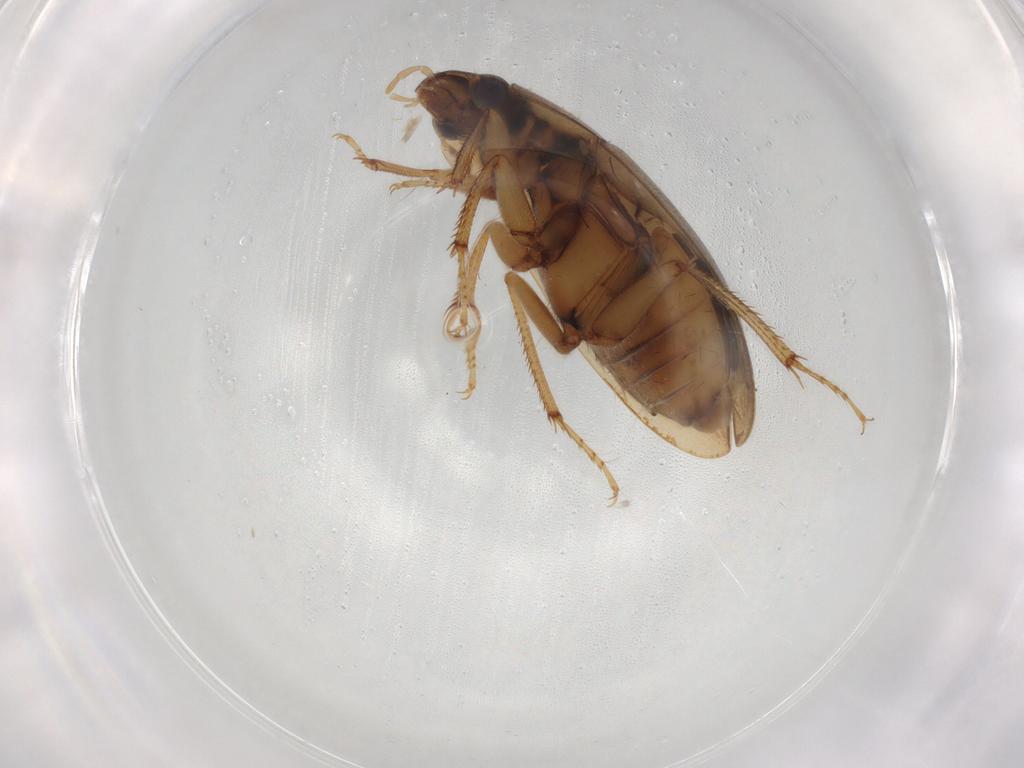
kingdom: Animalia
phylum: Arthropoda
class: Insecta
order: Coleoptera
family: Hydrophilidae
